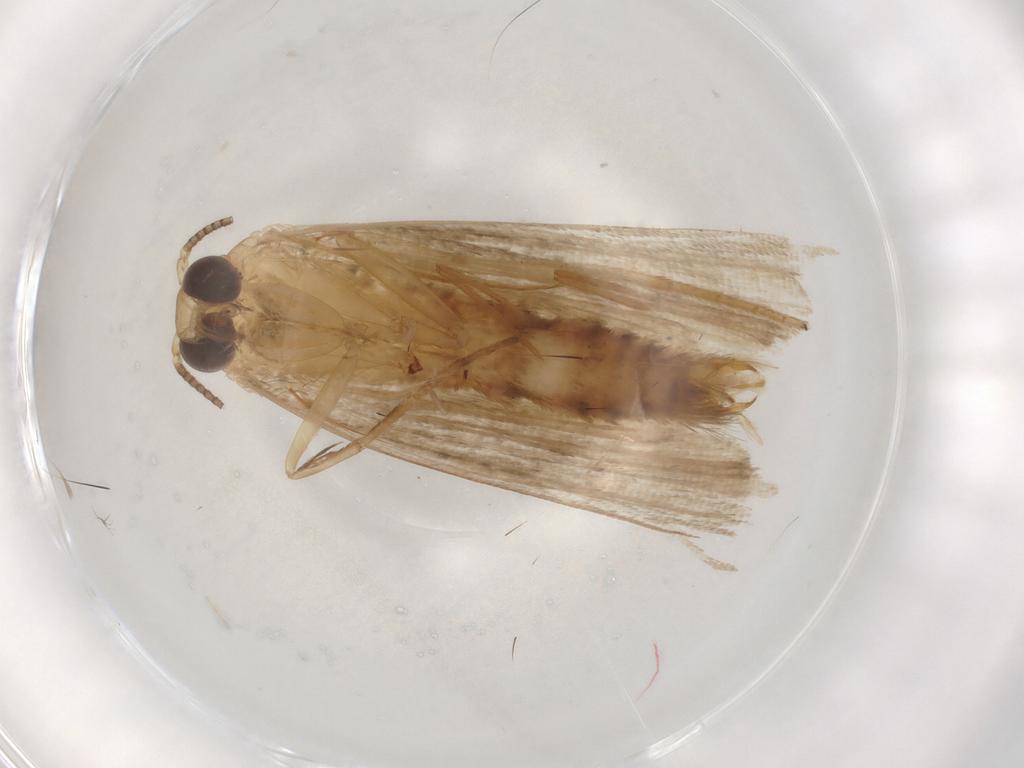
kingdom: Animalia
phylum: Arthropoda
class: Insecta
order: Lepidoptera
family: Erebidae
